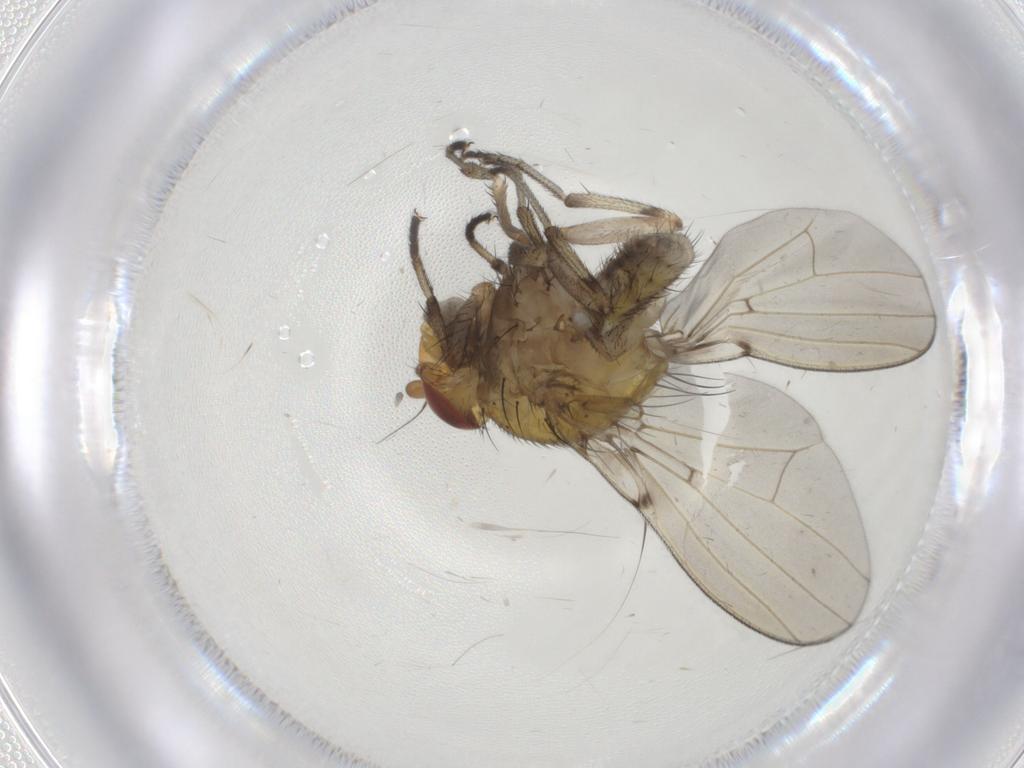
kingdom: Animalia
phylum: Arthropoda
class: Insecta
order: Diptera
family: Lauxaniidae
